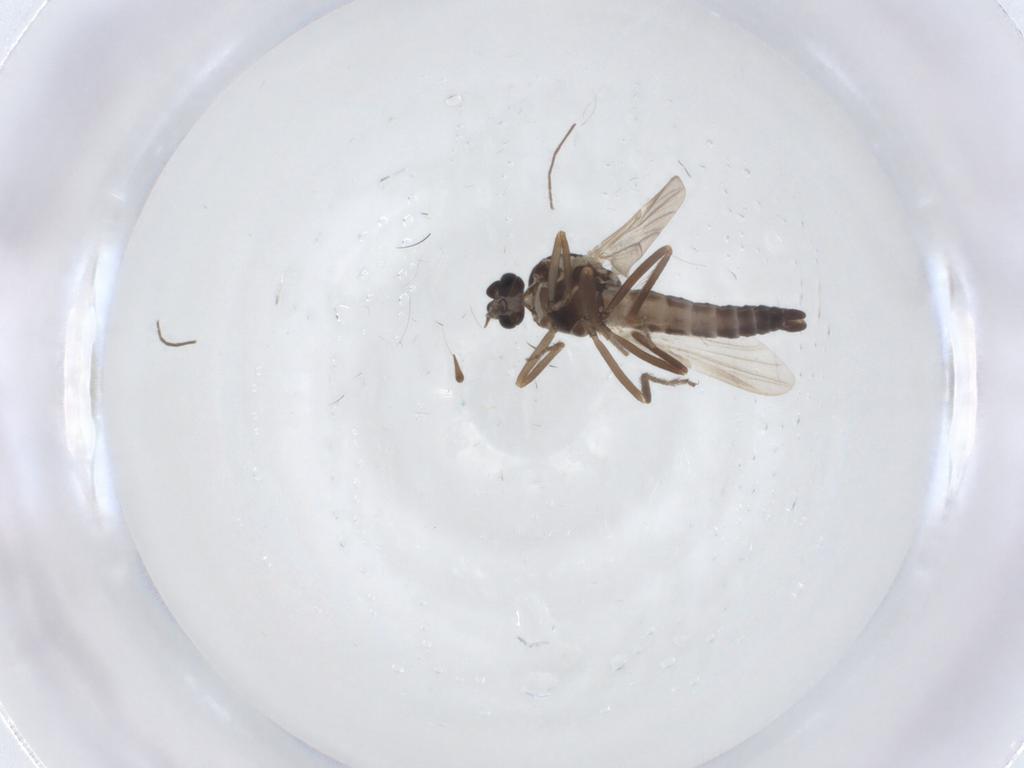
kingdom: Animalia
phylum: Arthropoda
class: Insecta
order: Diptera
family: Ceratopogonidae
